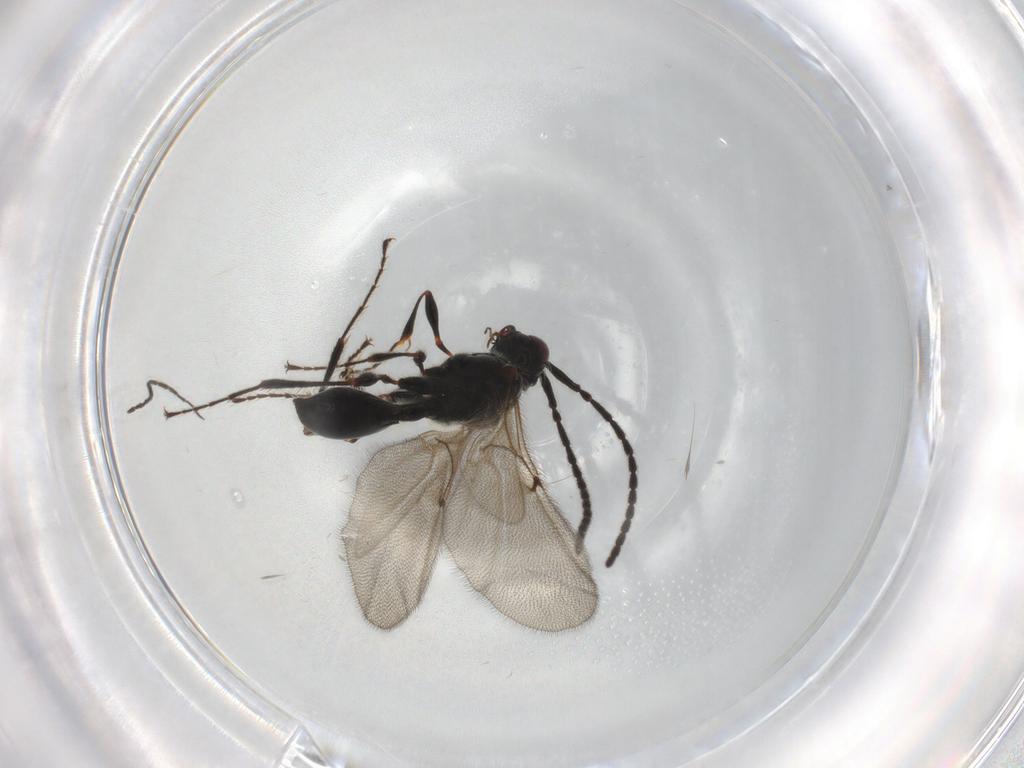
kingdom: Animalia
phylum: Arthropoda
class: Insecta
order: Hymenoptera
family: Diapriidae
